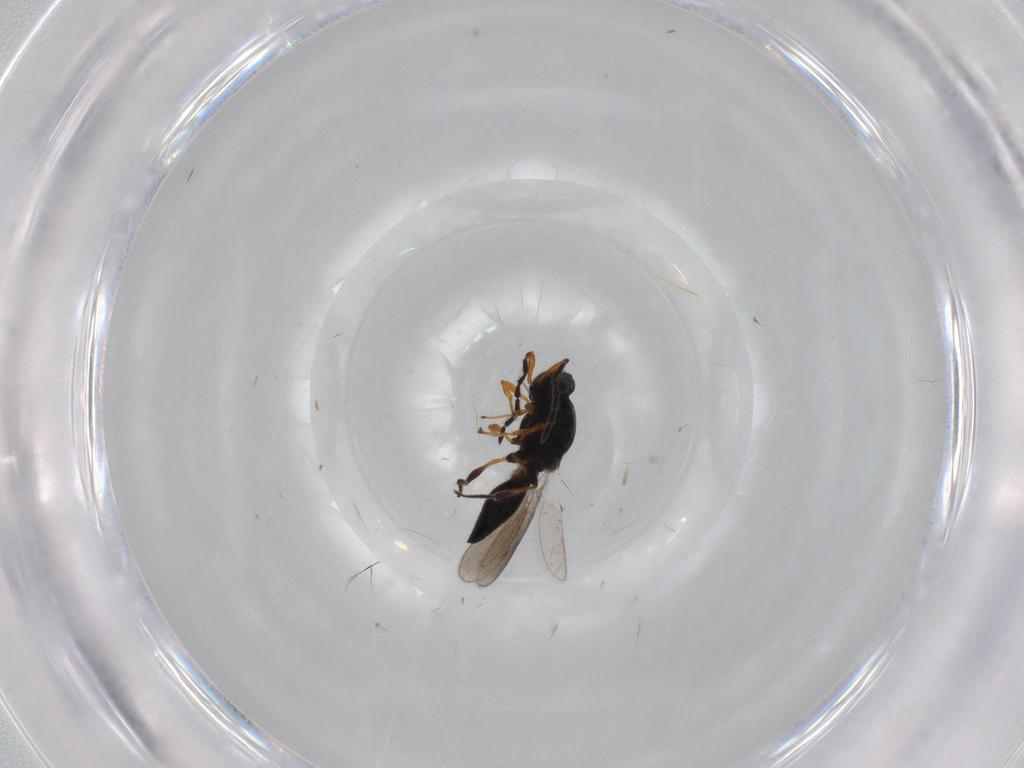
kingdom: Animalia
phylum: Arthropoda
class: Insecta
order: Hymenoptera
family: Platygastridae
